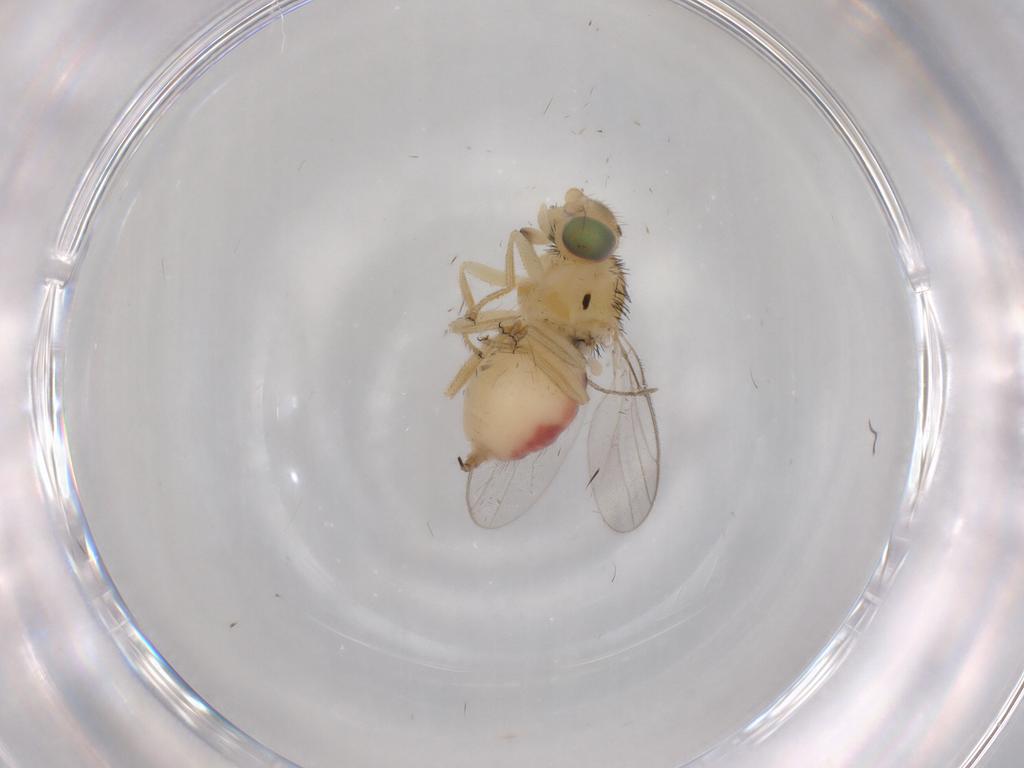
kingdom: Animalia
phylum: Arthropoda
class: Insecta
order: Diptera
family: Chloropidae
